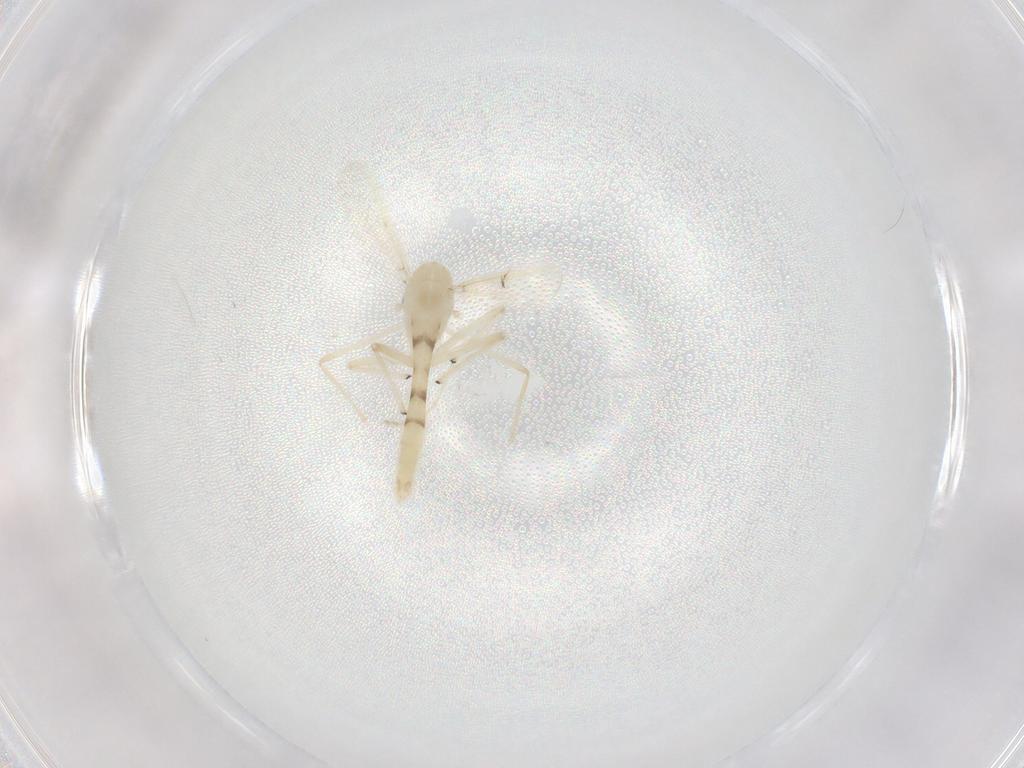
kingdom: Animalia
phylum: Arthropoda
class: Insecta
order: Diptera
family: Chironomidae
